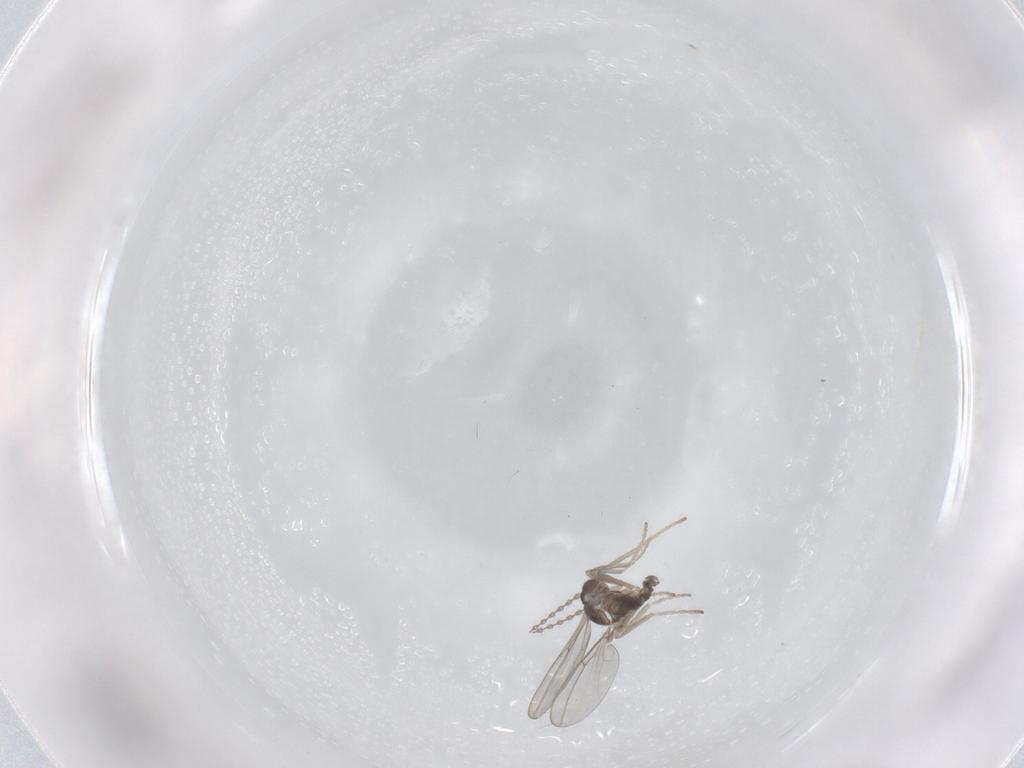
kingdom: Animalia
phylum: Arthropoda
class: Insecta
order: Diptera
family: Cecidomyiidae
